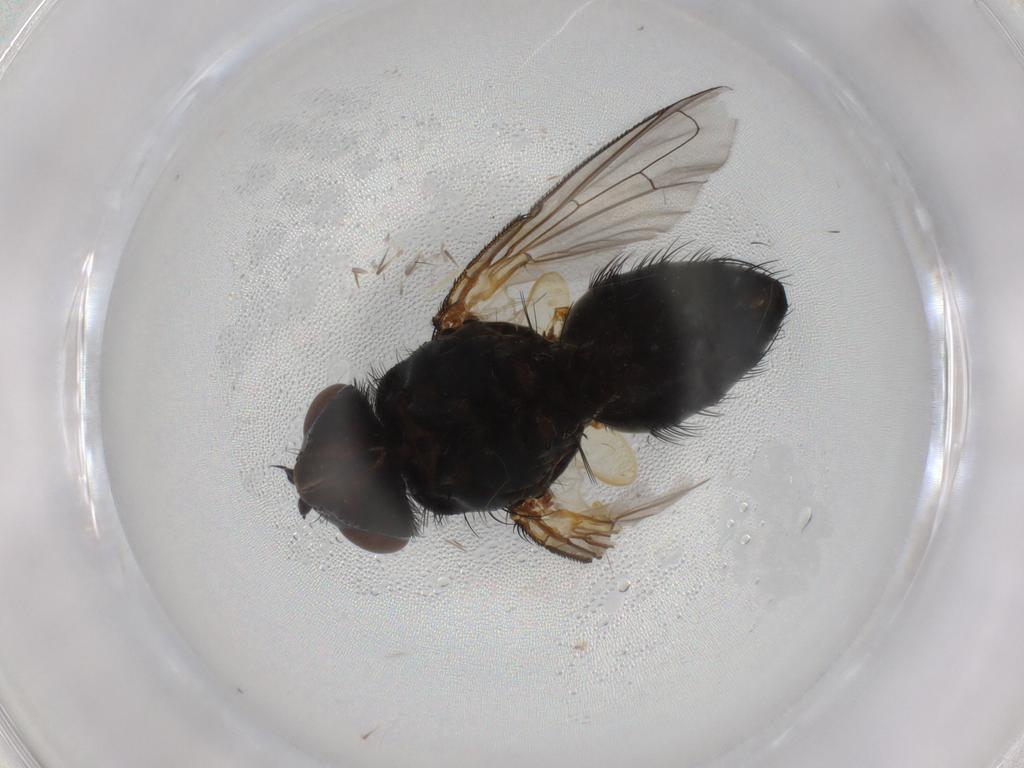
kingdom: Animalia
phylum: Arthropoda
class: Insecta
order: Diptera
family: Tachinidae
